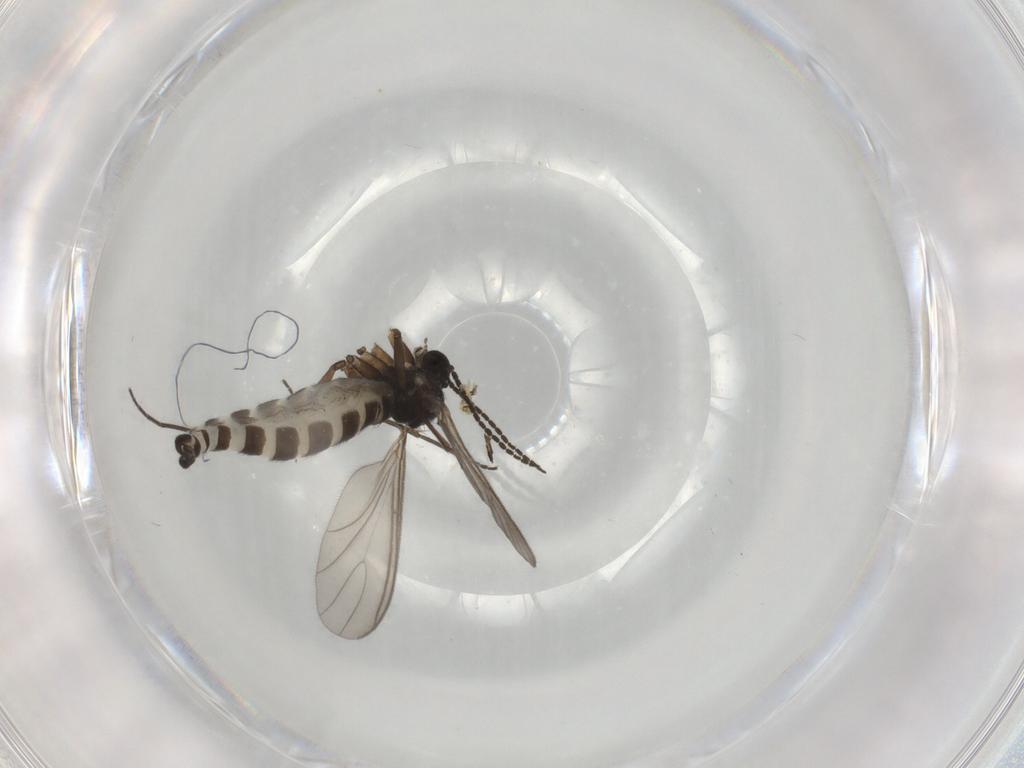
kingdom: Animalia
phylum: Arthropoda
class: Insecta
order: Diptera
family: Sciaridae
